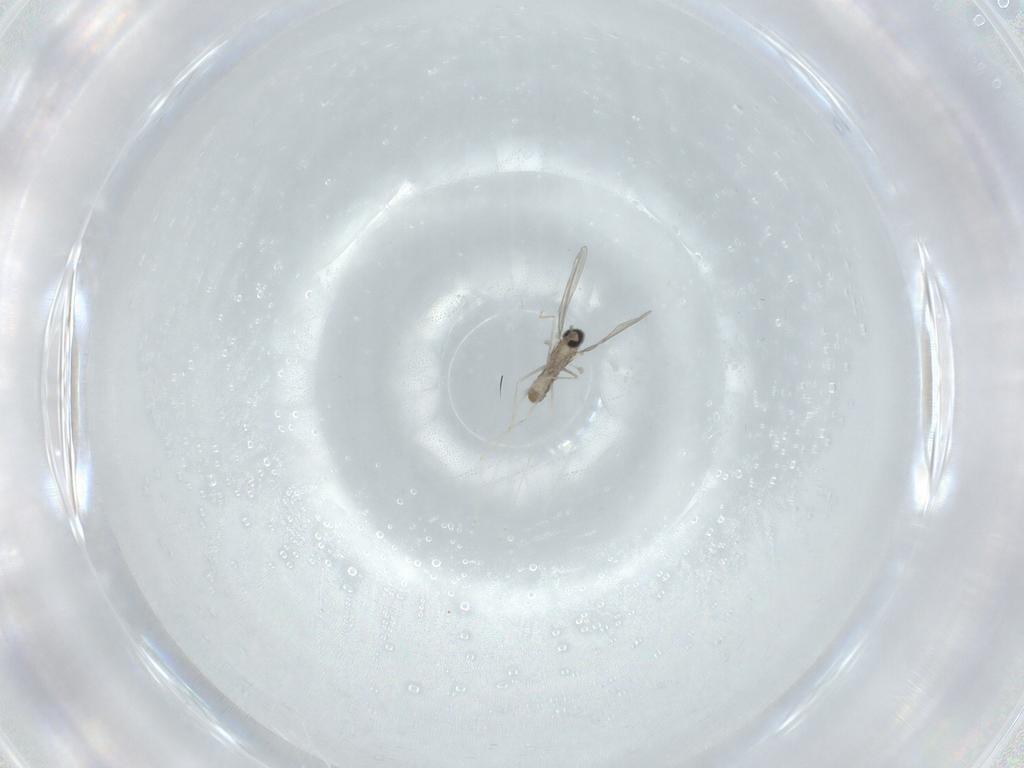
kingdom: Animalia
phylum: Arthropoda
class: Insecta
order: Diptera
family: Cecidomyiidae
